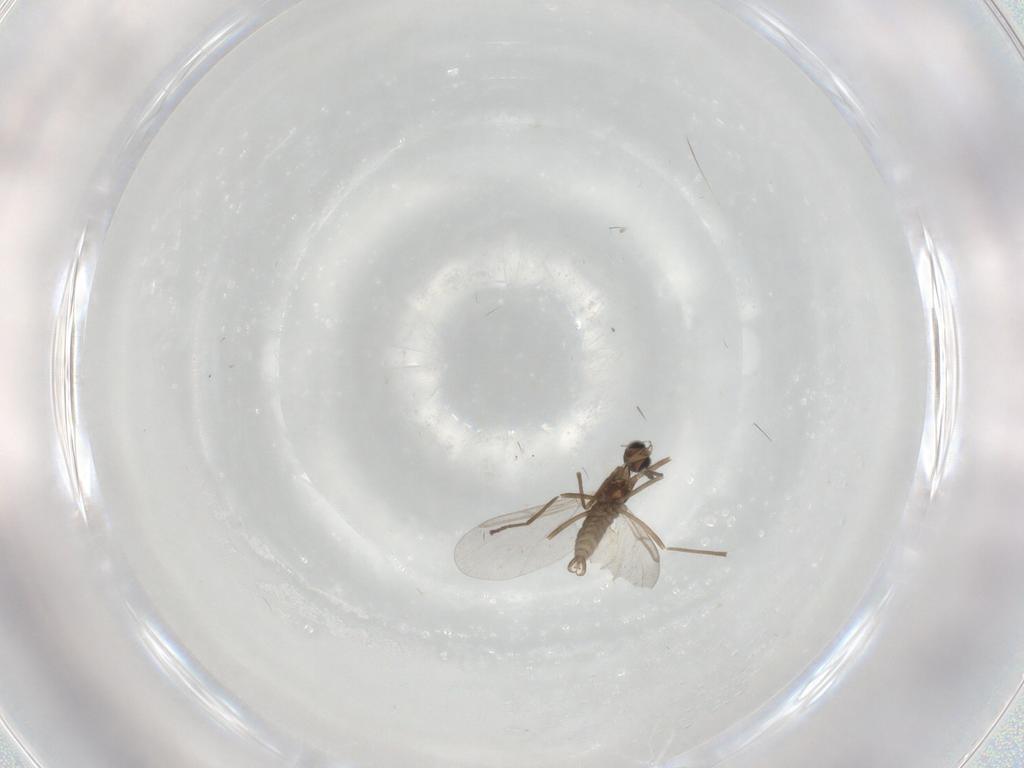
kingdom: Animalia
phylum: Arthropoda
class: Insecta
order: Diptera
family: Cecidomyiidae
